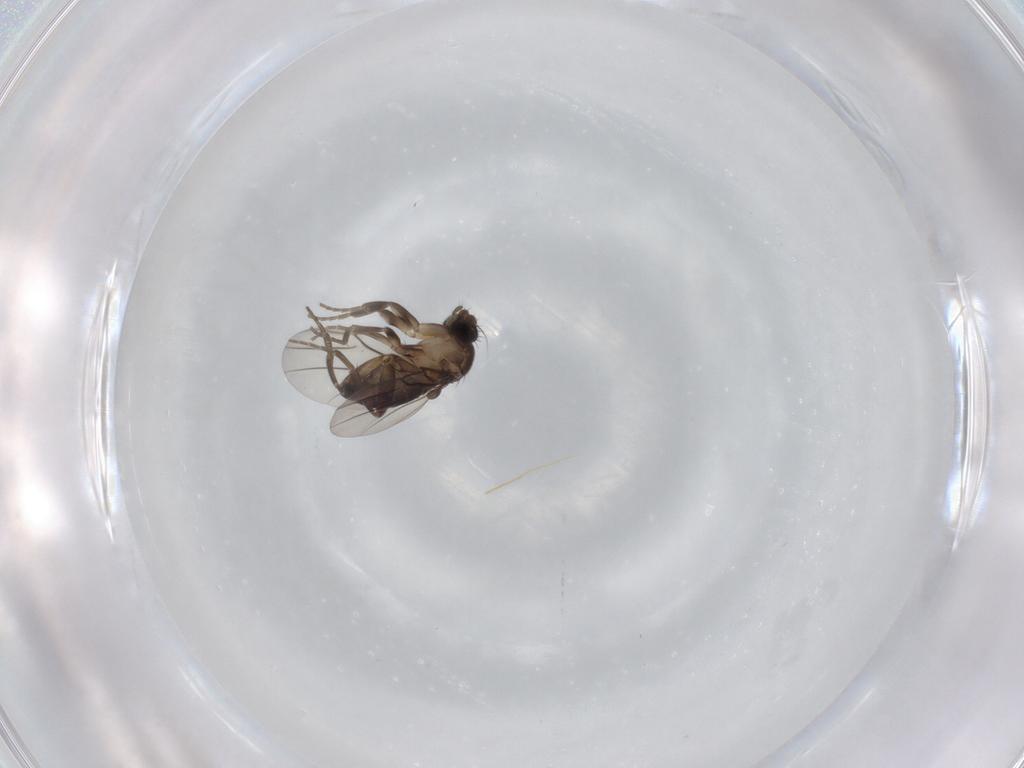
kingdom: Animalia
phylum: Arthropoda
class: Insecta
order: Diptera
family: Phoridae
